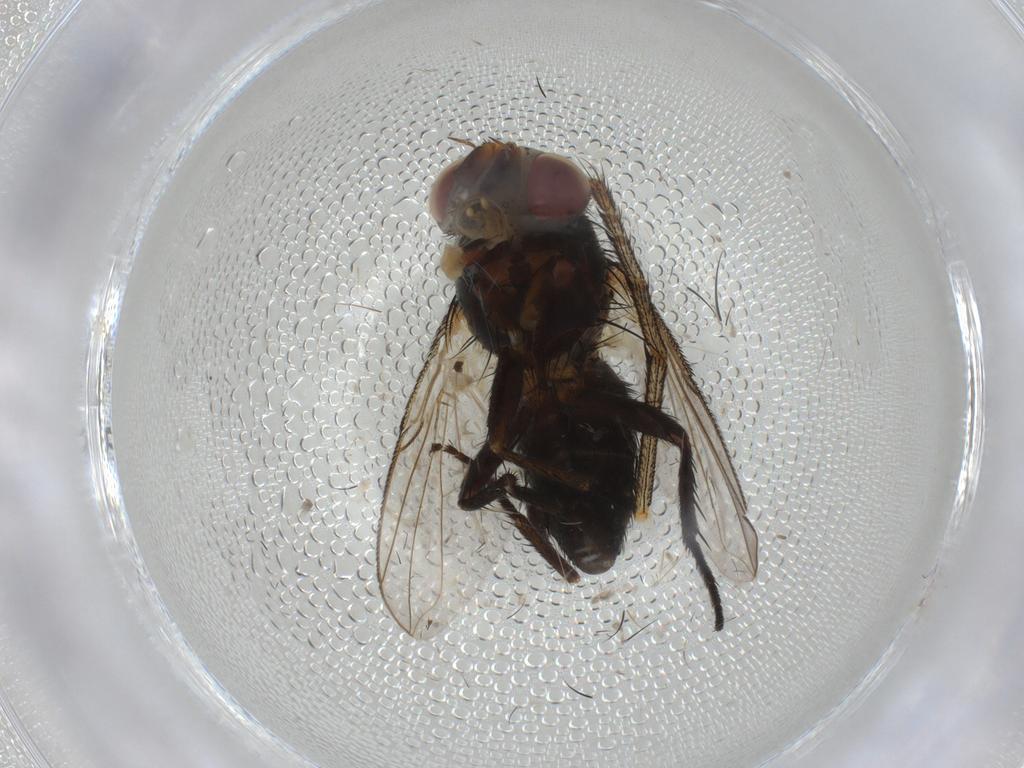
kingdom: Animalia
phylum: Arthropoda
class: Insecta
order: Diptera
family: Tachinidae
